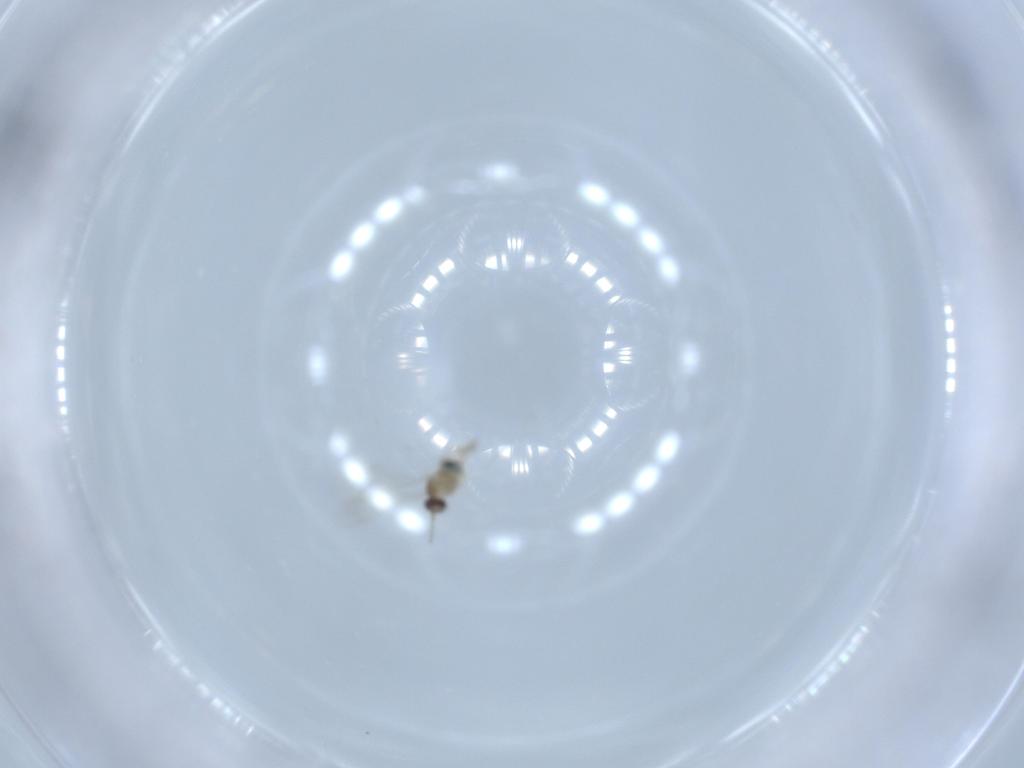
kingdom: Animalia
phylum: Arthropoda
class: Insecta
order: Diptera
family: Cecidomyiidae
